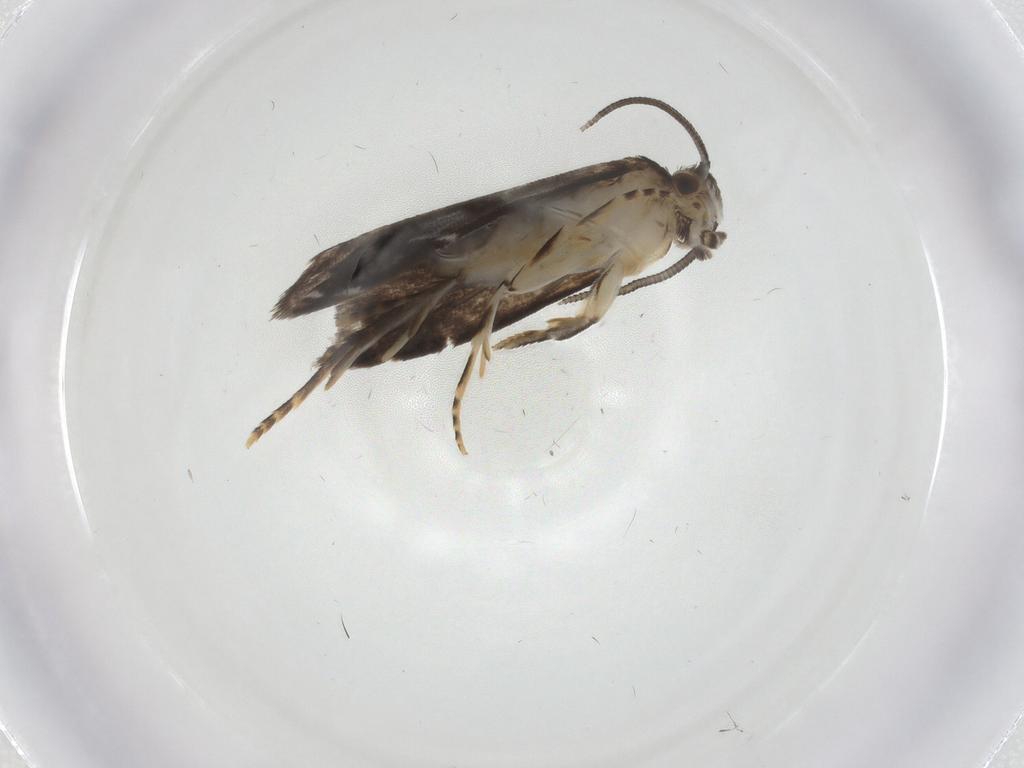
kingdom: Animalia
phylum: Arthropoda
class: Insecta
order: Lepidoptera
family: Dryadaulidae
